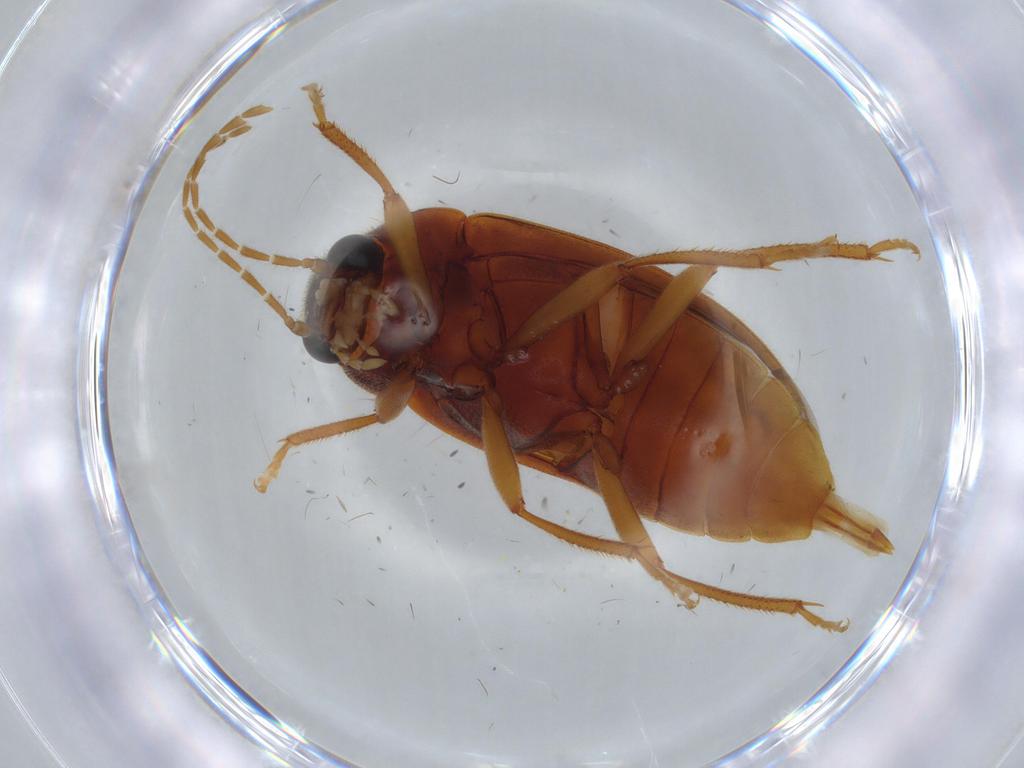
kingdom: Animalia
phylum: Arthropoda
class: Insecta
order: Coleoptera
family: Ptilodactylidae
